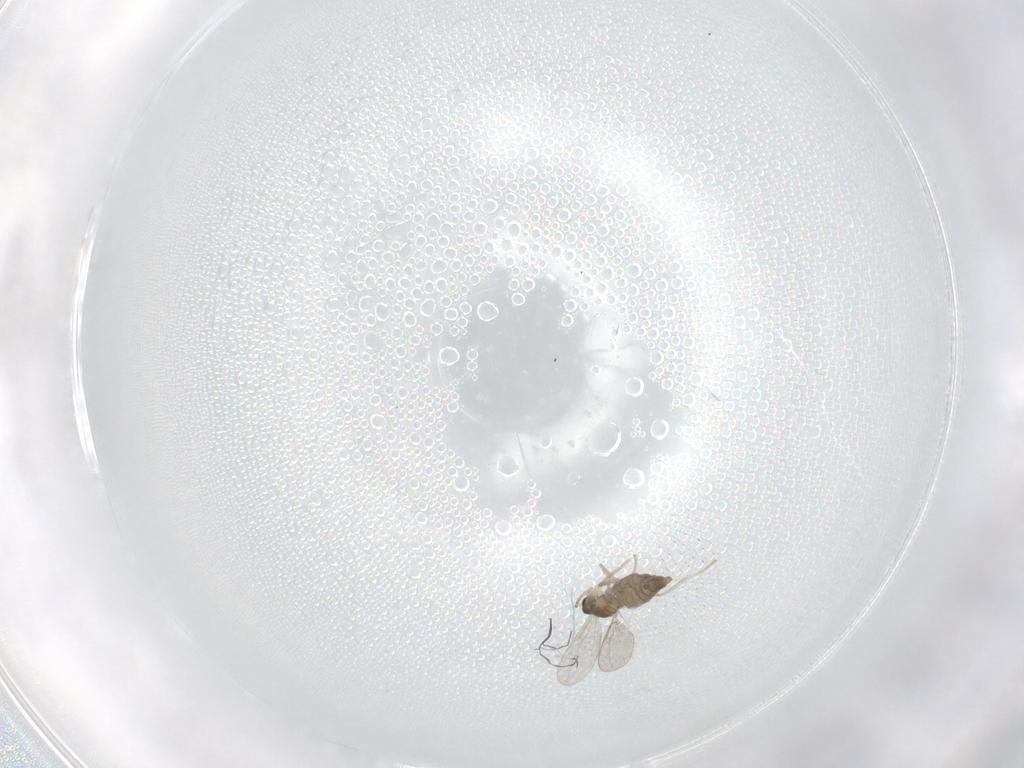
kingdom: Animalia
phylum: Arthropoda
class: Insecta
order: Diptera
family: Cecidomyiidae
